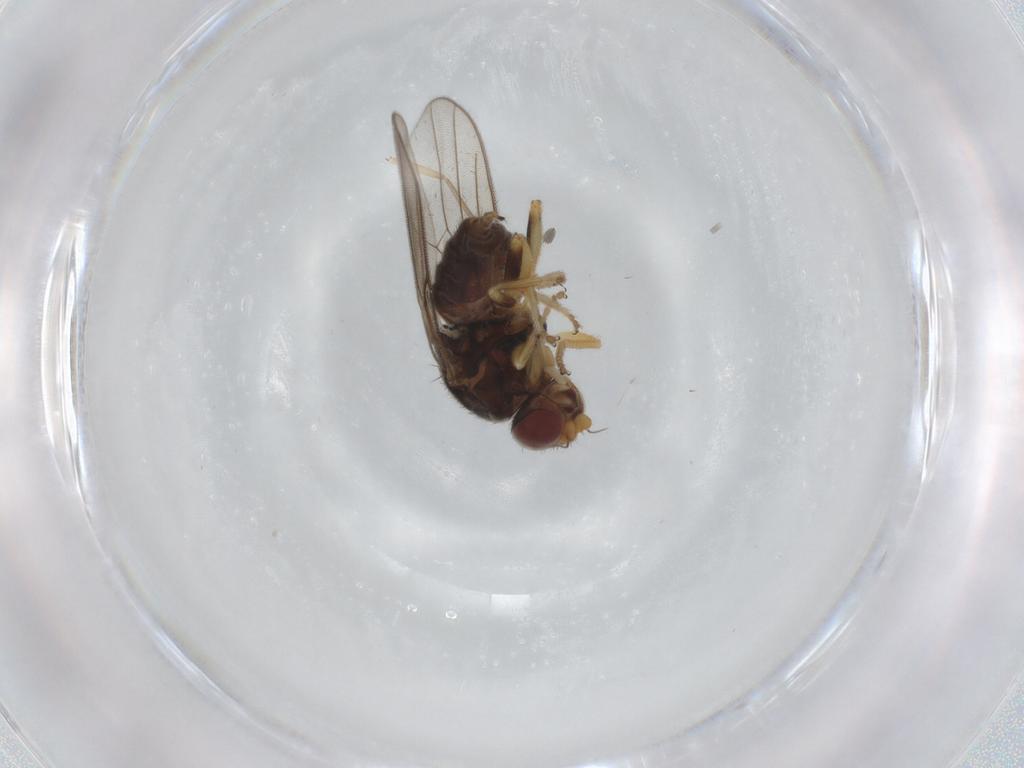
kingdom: Animalia
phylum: Arthropoda
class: Insecta
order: Diptera
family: Chloropidae
